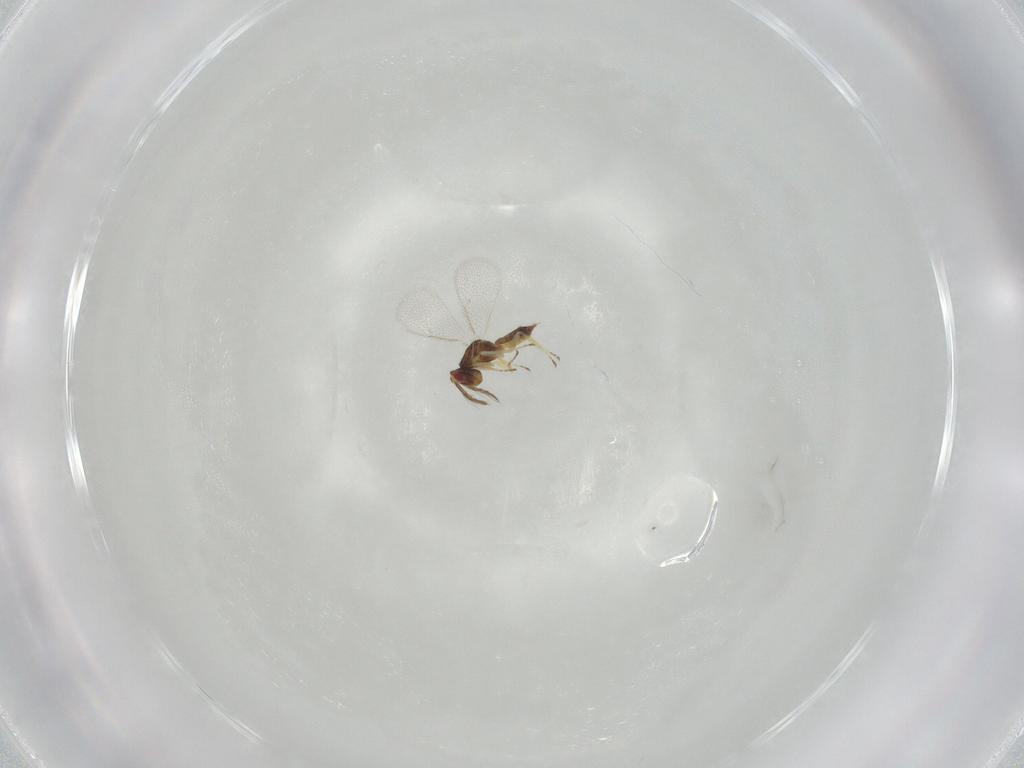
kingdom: Animalia
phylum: Arthropoda
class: Insecta
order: Hymenoptera
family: Eulophidae
